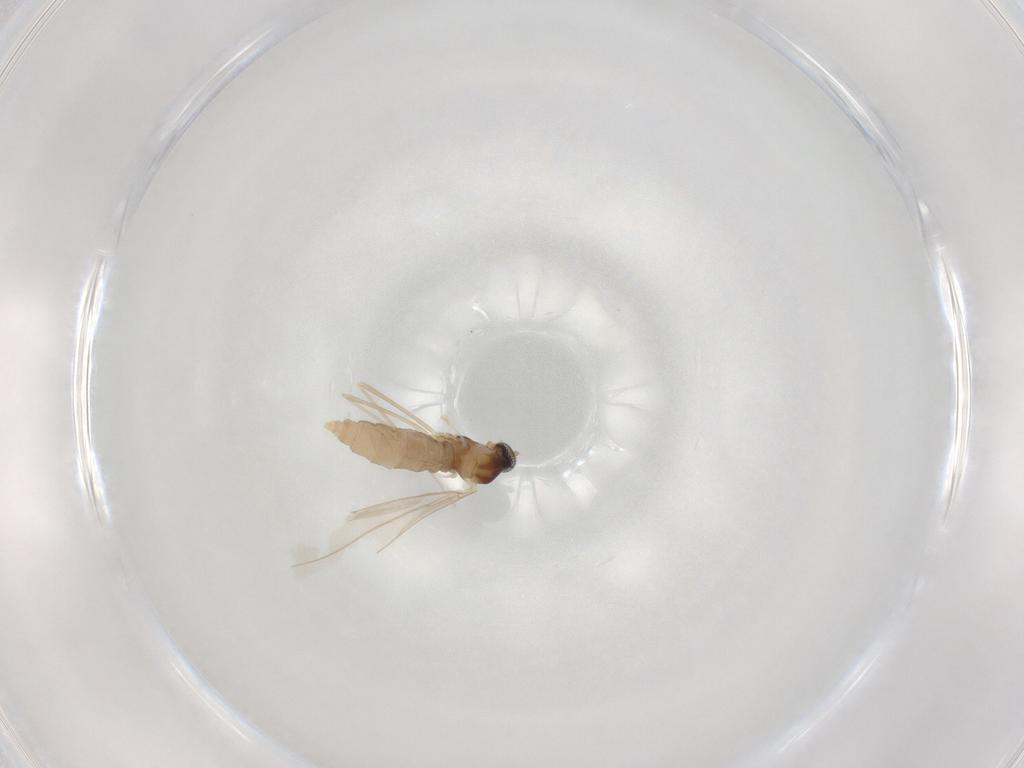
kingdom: Animalia
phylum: Arthropoda
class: Insecta
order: Diptera
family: Cecidomyiidae
